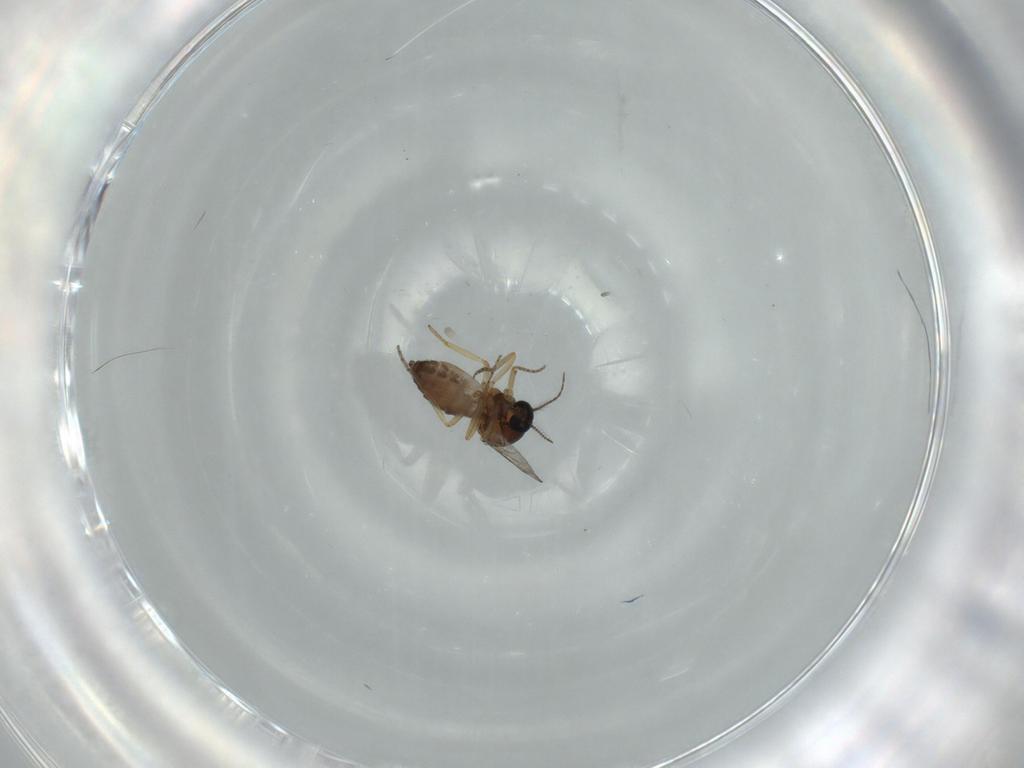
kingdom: Animalia
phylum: Arthropoda
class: Insecta
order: Diptera
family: Ceratopogonidae
